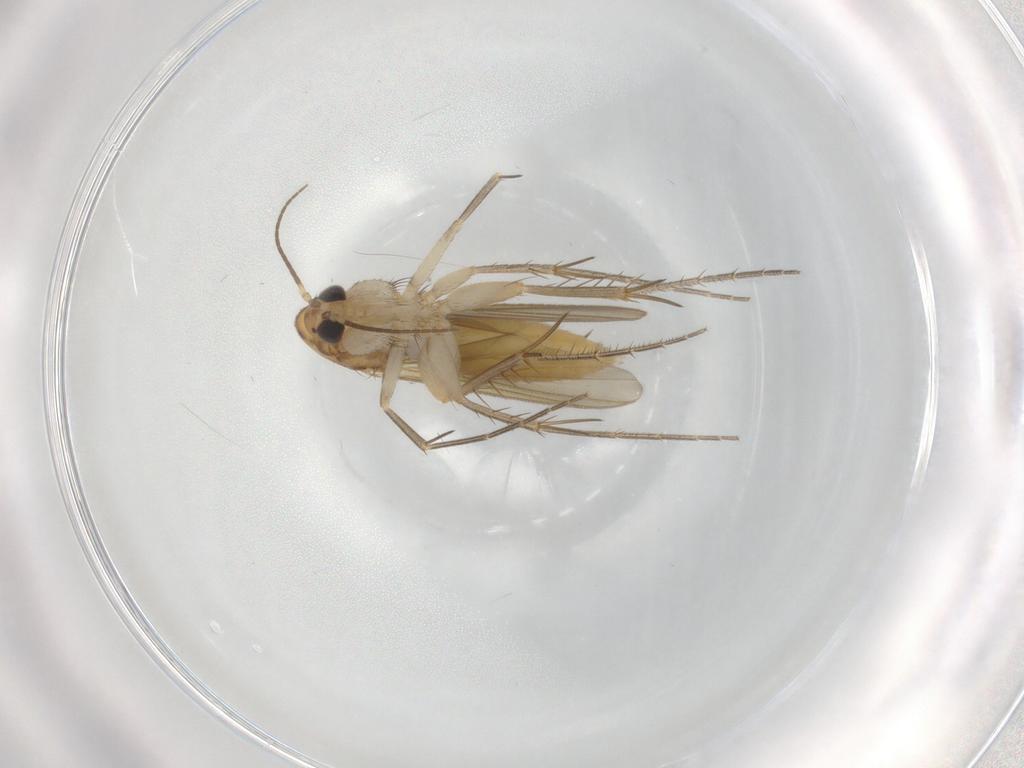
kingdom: Animalia
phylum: Arthropoda
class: Insecta
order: Diptera
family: Mycetophilidae
